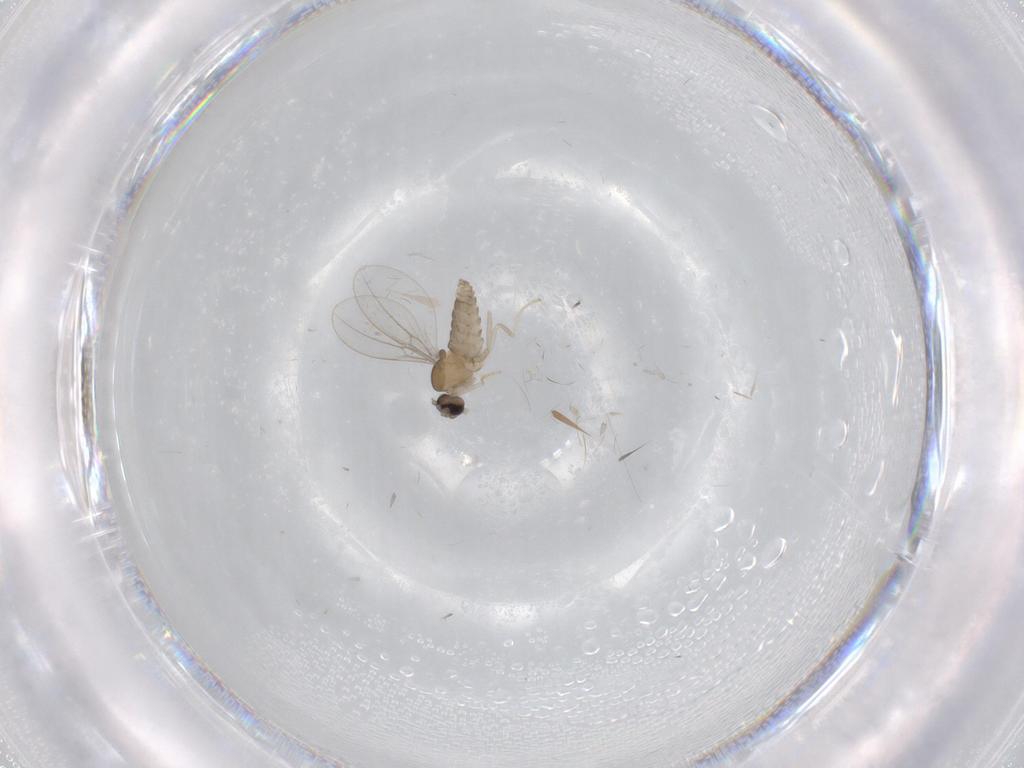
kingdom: Animalia
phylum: Arthropoda
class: Insecta
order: Diptera
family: Cecidomyiidae
